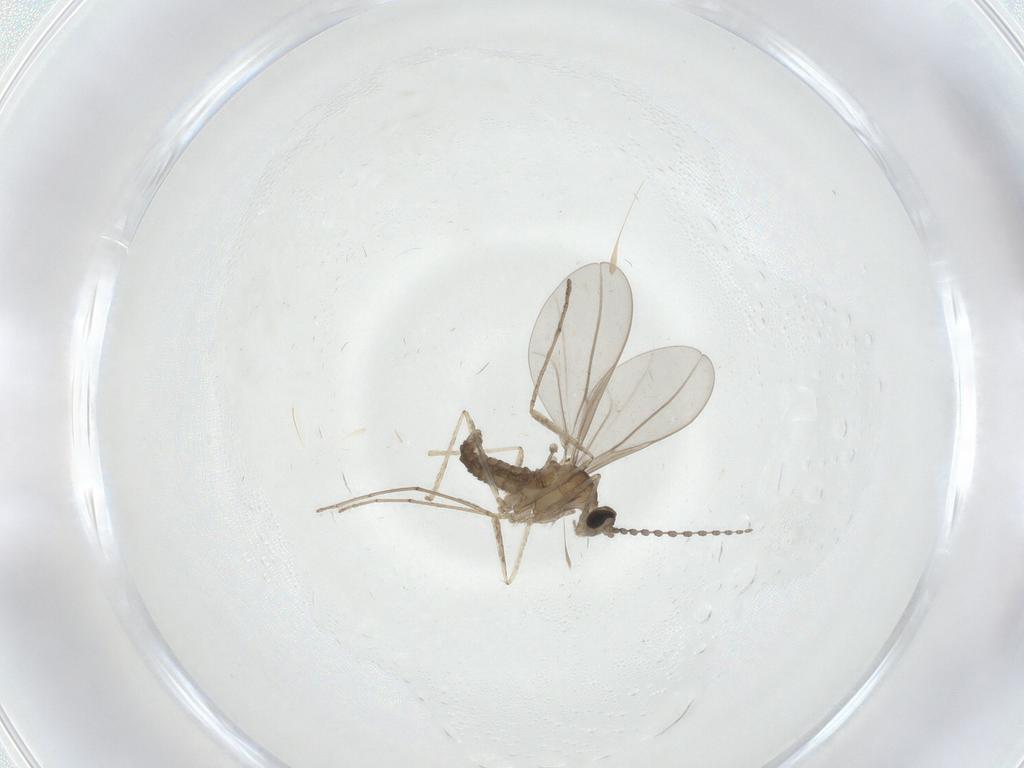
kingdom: Animalia
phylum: Arthropoda
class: Insecta
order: Diptera
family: Cecidomyiidae
